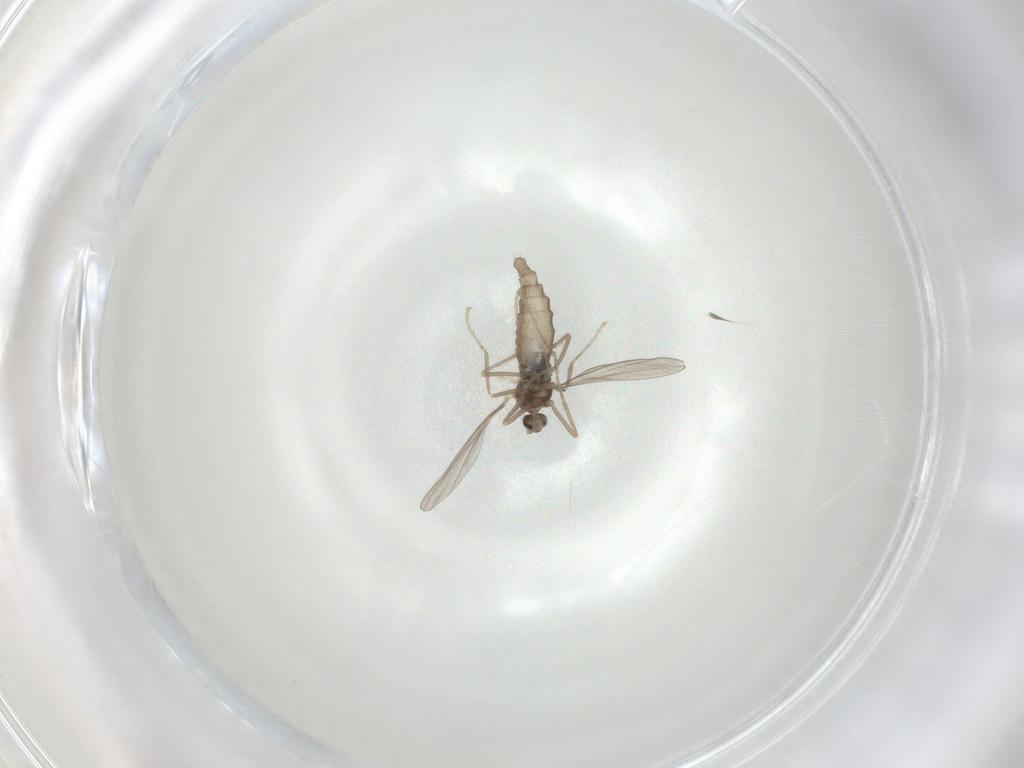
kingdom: Animalia
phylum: Arthropoda
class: Insecta
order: Diptera
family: Cecidomyiidae
